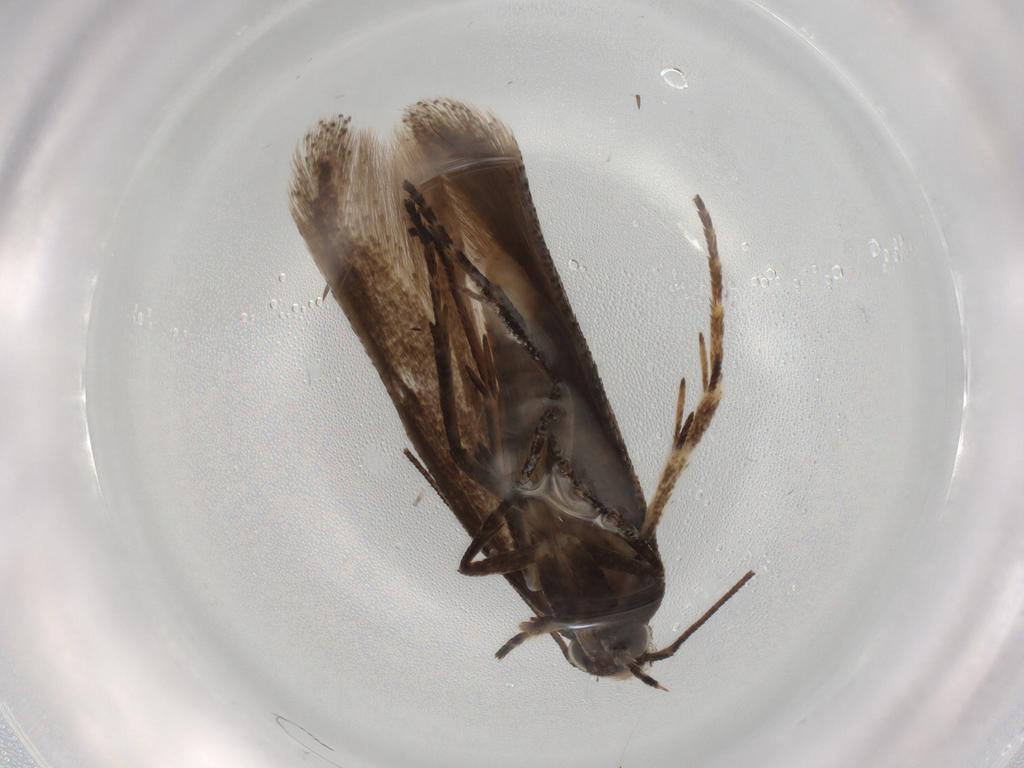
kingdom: Animalia
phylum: Arthropoda
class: Insecta
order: Lepidoptera
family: Gelechiidae
